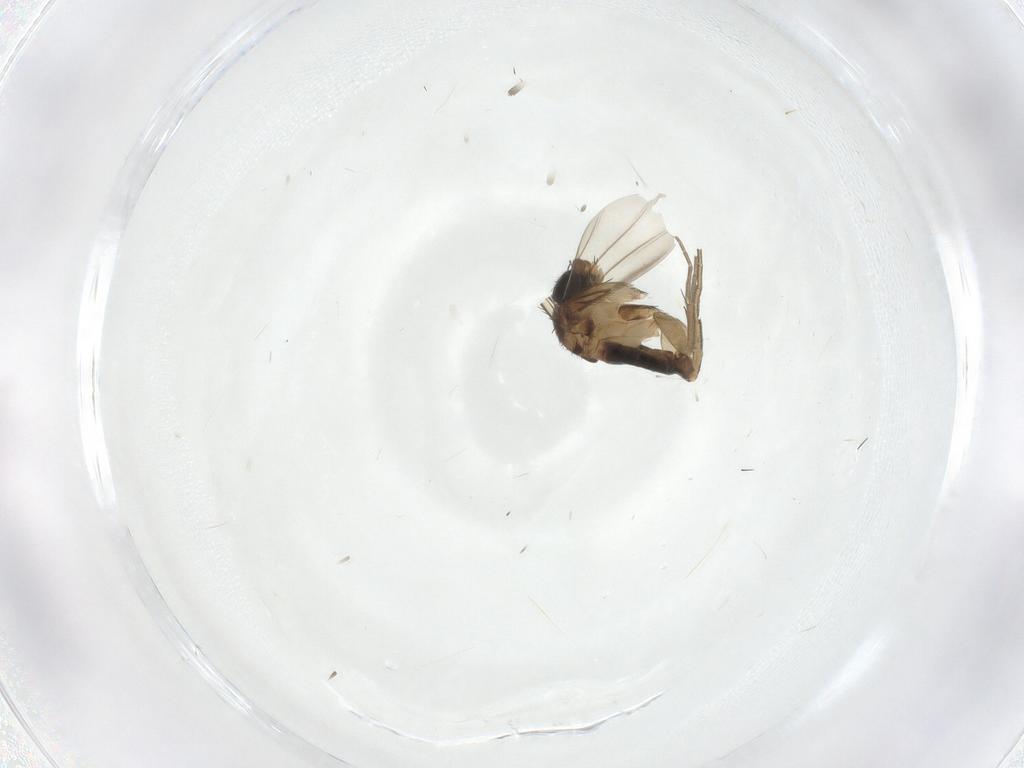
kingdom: Animalia
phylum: Arthropoda
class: Insecta
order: Diptera
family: Phoridae
